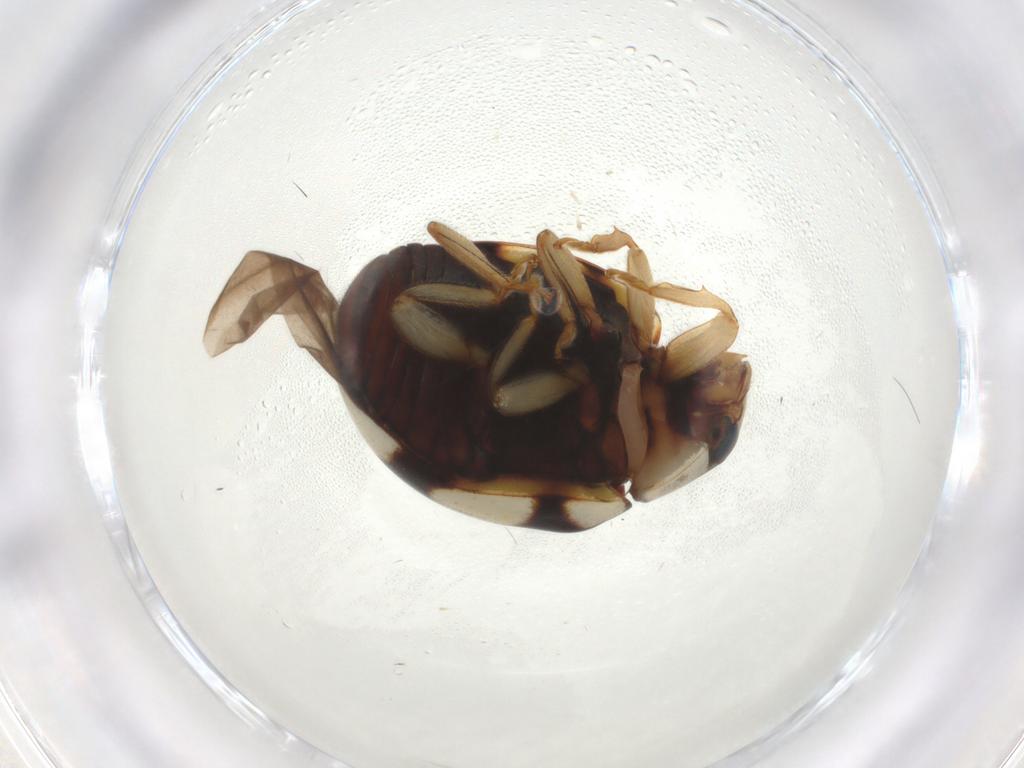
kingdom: Animalia
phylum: Arthropoda
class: Insecta
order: Coleoptera
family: Coccinellidae
